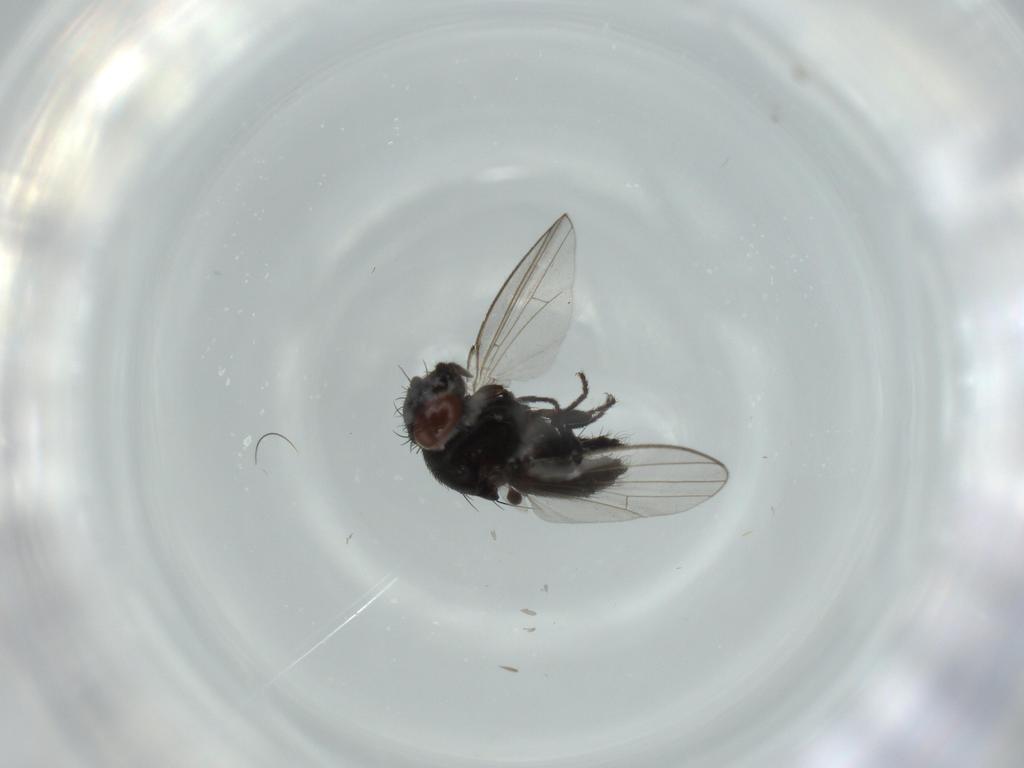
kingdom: Animalia
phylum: Arthropoda
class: Insecta
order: Diptera
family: Milichiidae
